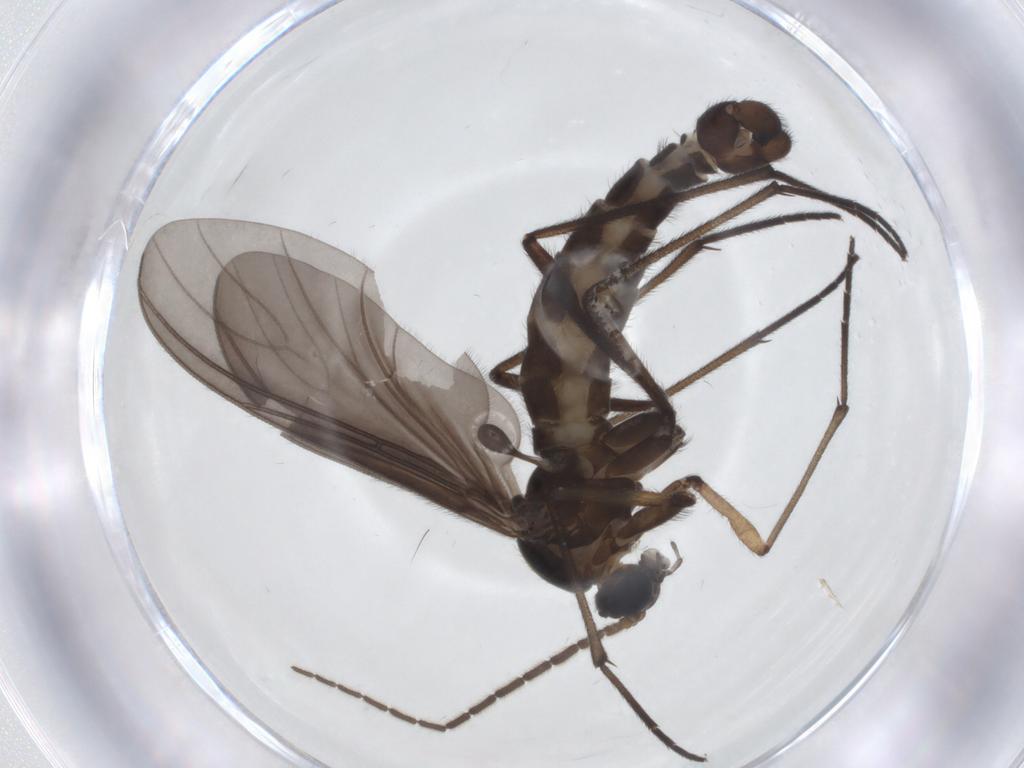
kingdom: Animalia
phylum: Arthropoda
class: Insecta
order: Diptera
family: Sciaridae
